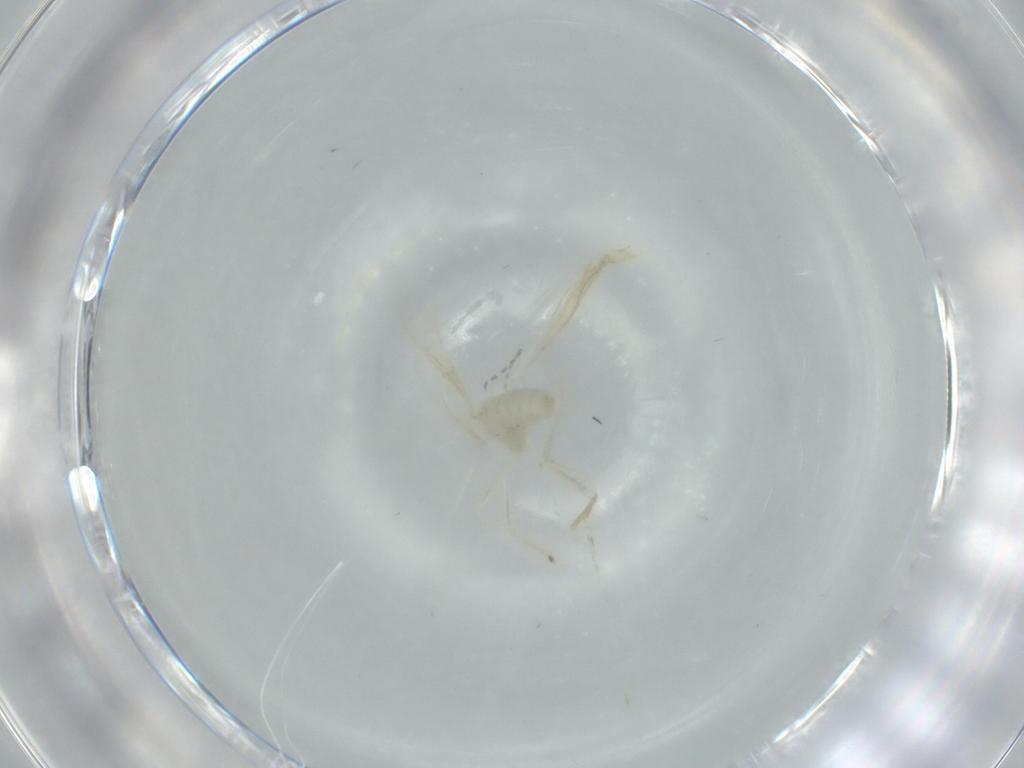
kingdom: Animalia
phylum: Arthropoda
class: Insecta
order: Diptera
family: Cecidomyiidae
